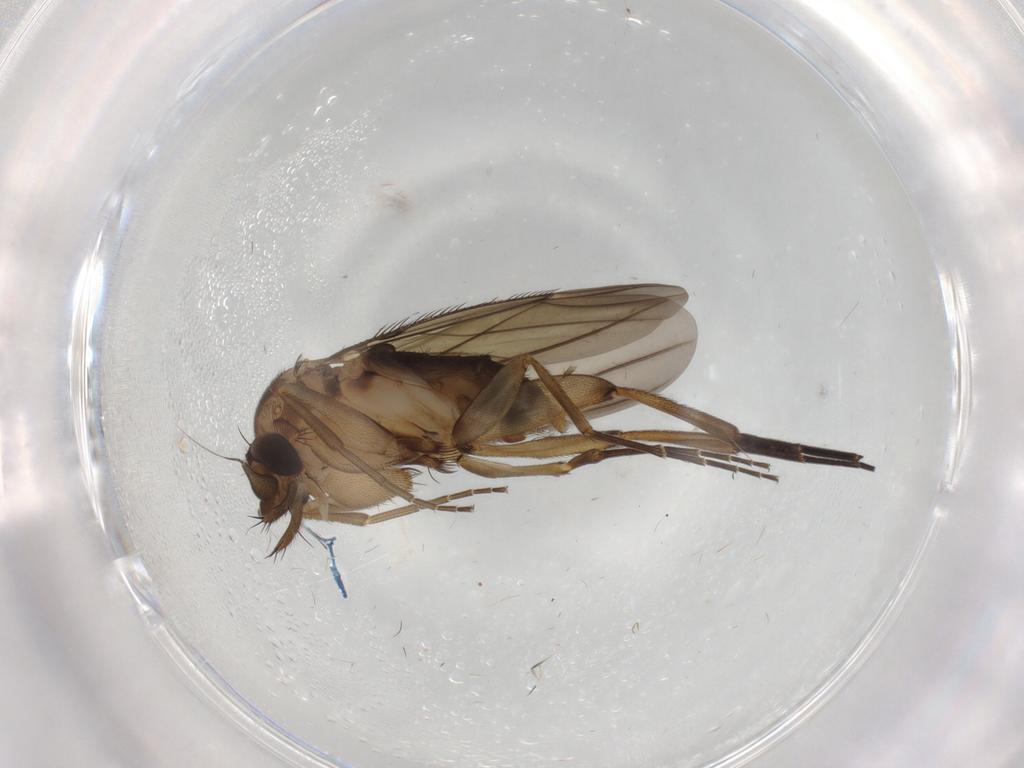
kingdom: Animalia
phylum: Arthropoda
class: Insecta
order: Diptera
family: Phoridae
